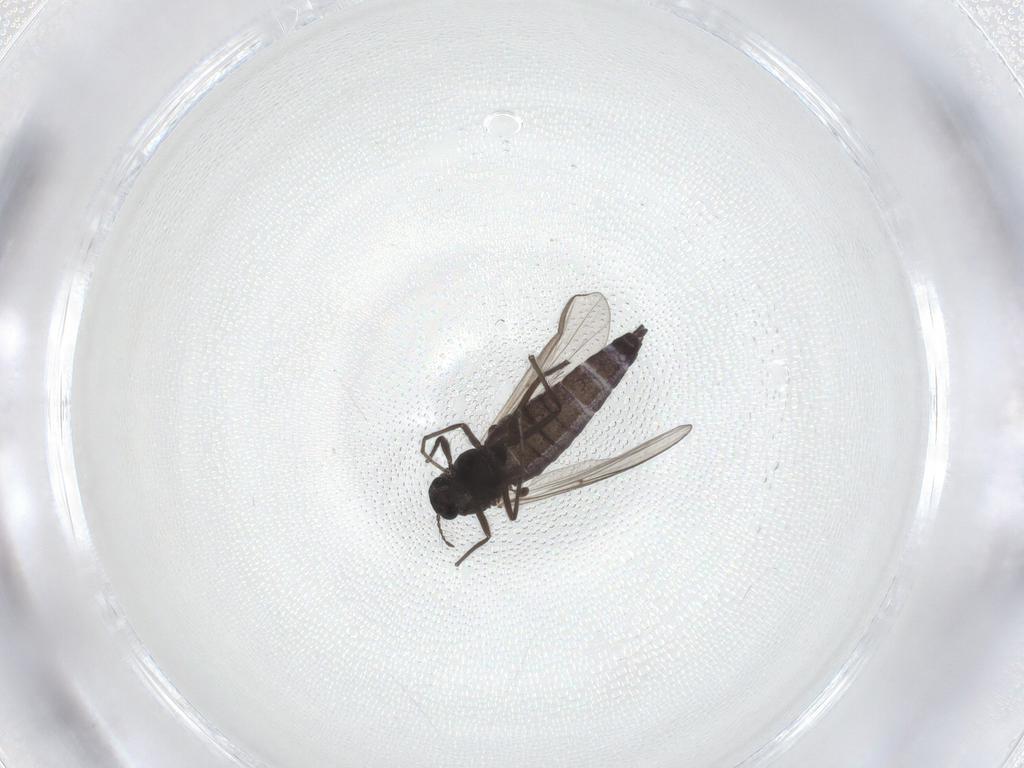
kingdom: Animalia
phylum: Arthropoda
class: Insecta
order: Diptera
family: Chironomidae
